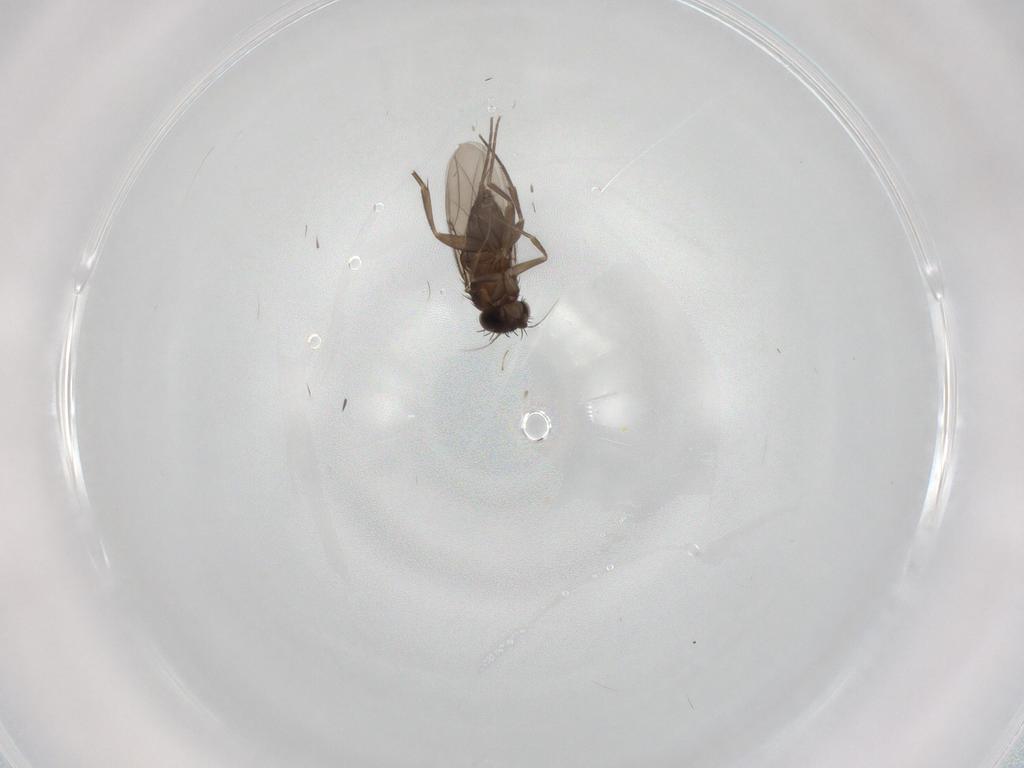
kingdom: Animalia
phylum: Arthropoda
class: Insecta
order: Diptera
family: Phoridae
